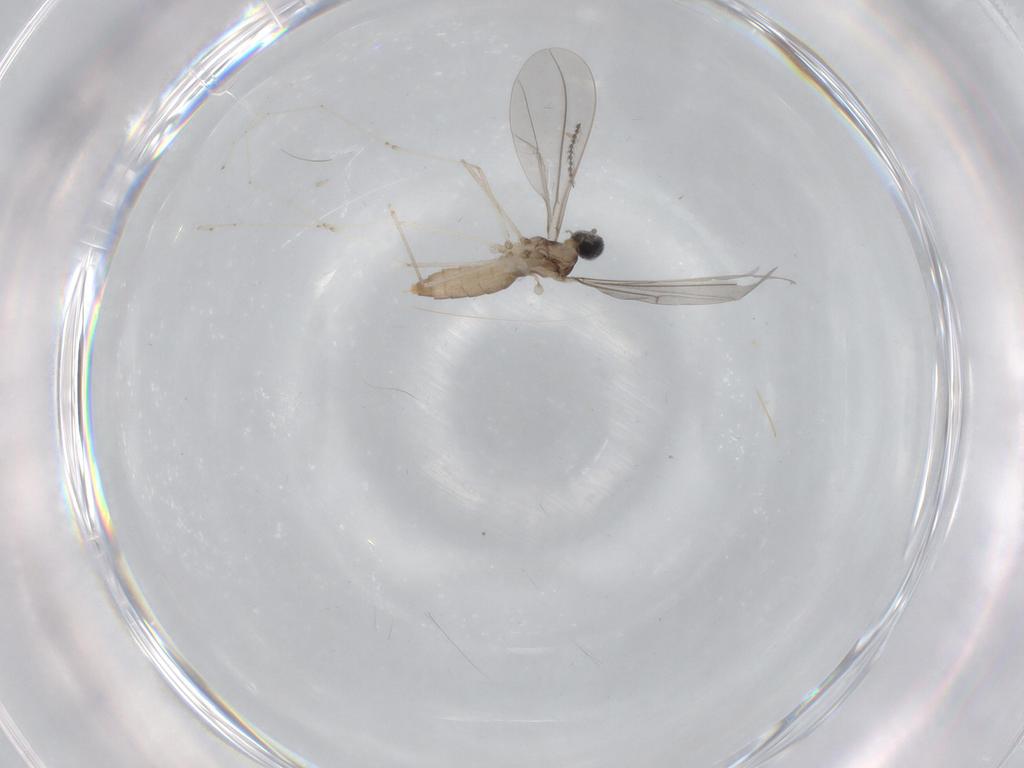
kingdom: Animalia
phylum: Arthropoda
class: Insecta
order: Diptera
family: Cecidomyiidae
